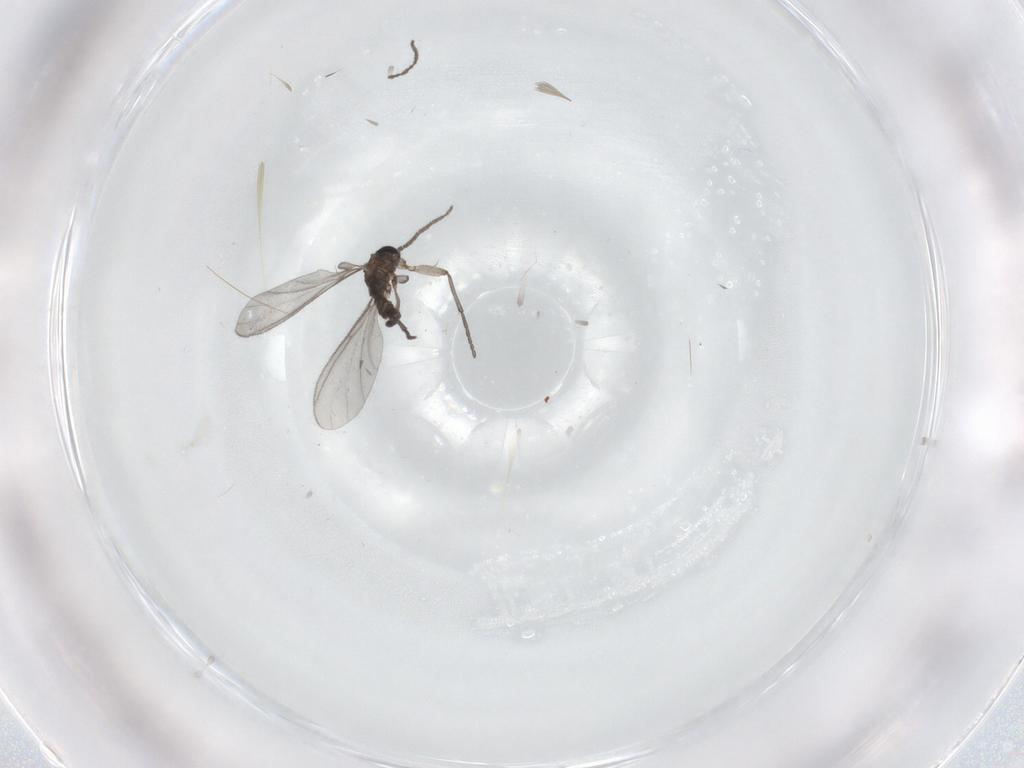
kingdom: Animalia
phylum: Arthropoda
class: Insecta
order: Diptera
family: Sciaridae
